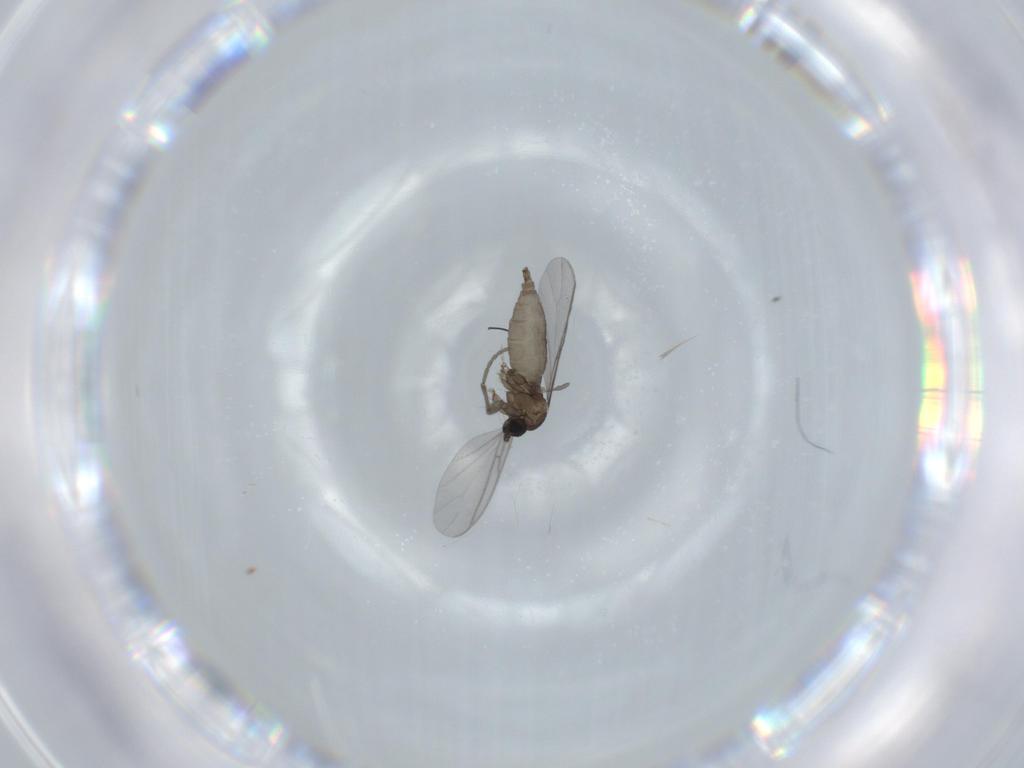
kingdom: Animalia
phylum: Arthropoda
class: Insecta
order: Diptera
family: Sciaridae
